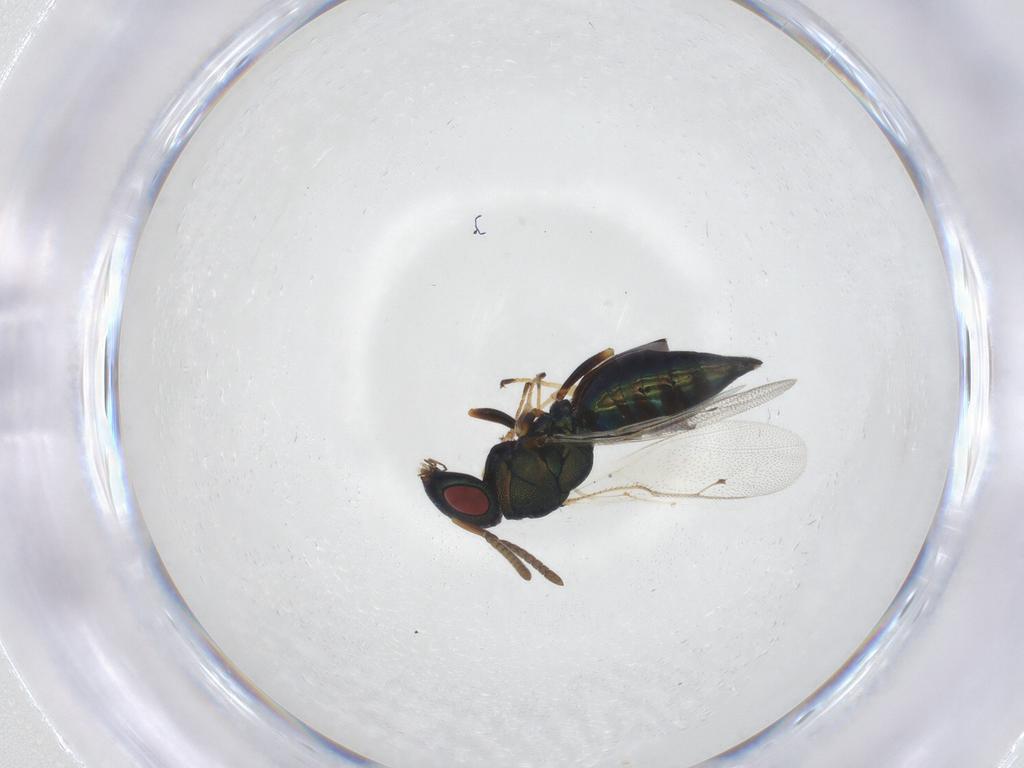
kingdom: Animalia
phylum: Arthropoda
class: Insecta
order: Hymenoptera
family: Pteromalidae
